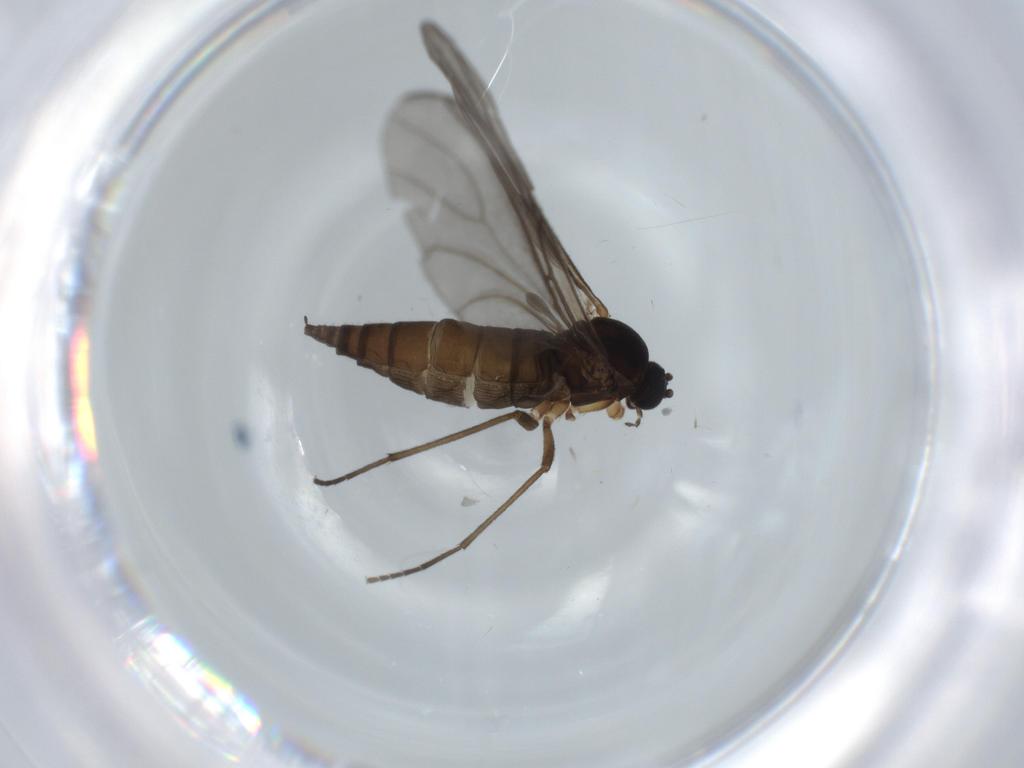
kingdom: Animalia
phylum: Arthropoda
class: Insecta
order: Diptera
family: Sciaridae
